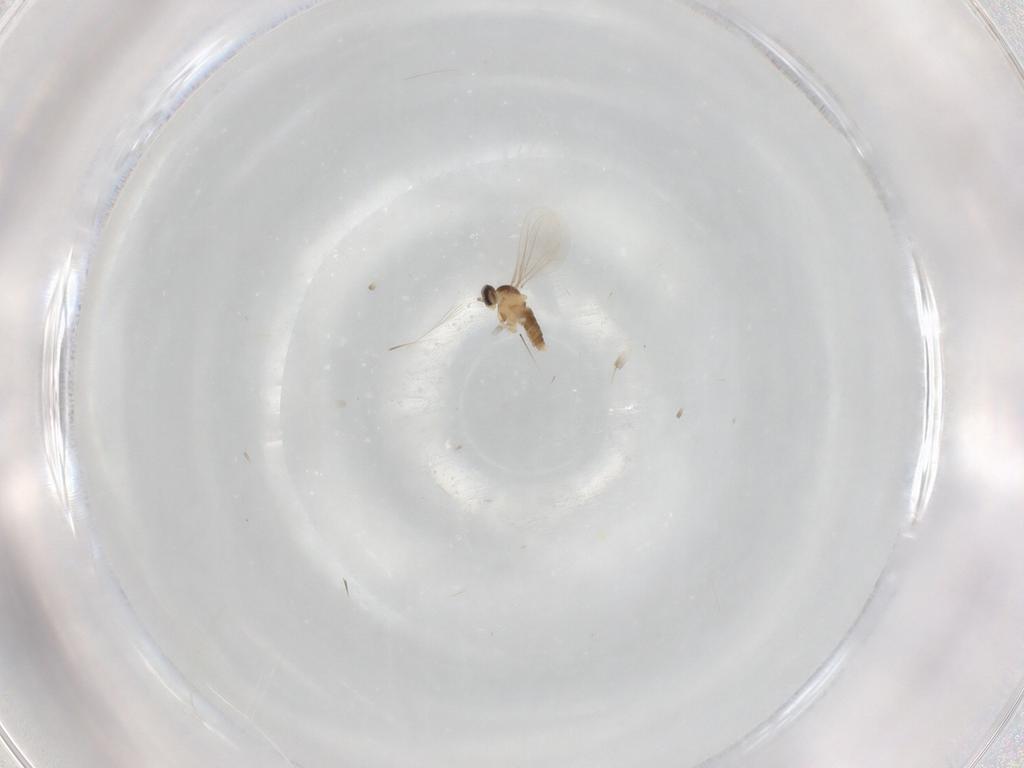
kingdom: Animalia
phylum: Arthropoda
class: Insecta
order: Diptera
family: Cecidomyiidae
